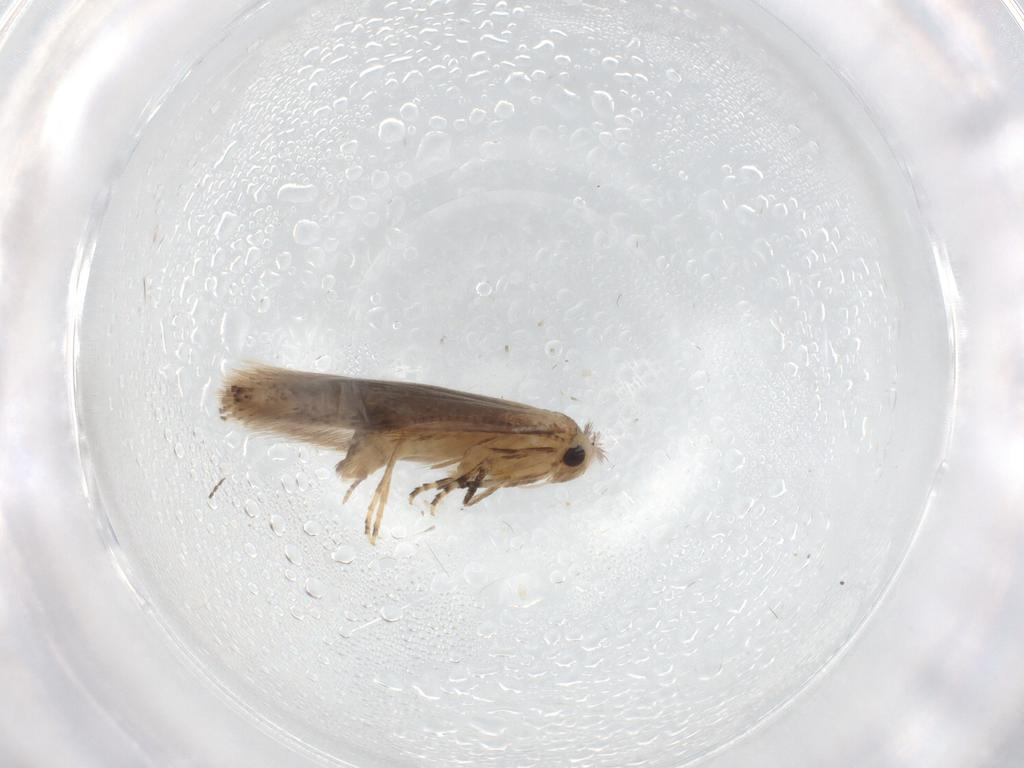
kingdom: Animalia
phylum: Arthropoda
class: Insecta
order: Lepidoptera
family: Bucculatricidae
